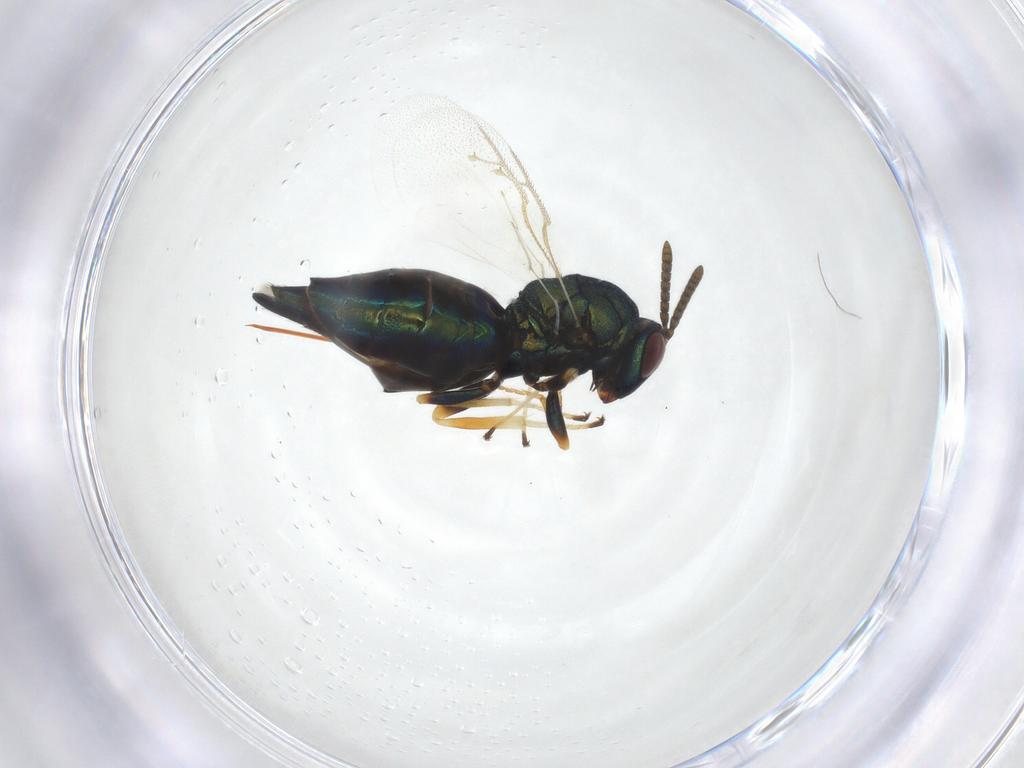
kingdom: Animalia
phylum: Arthropoda
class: Insecta
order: Hymenoptera
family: Pteromalidae
